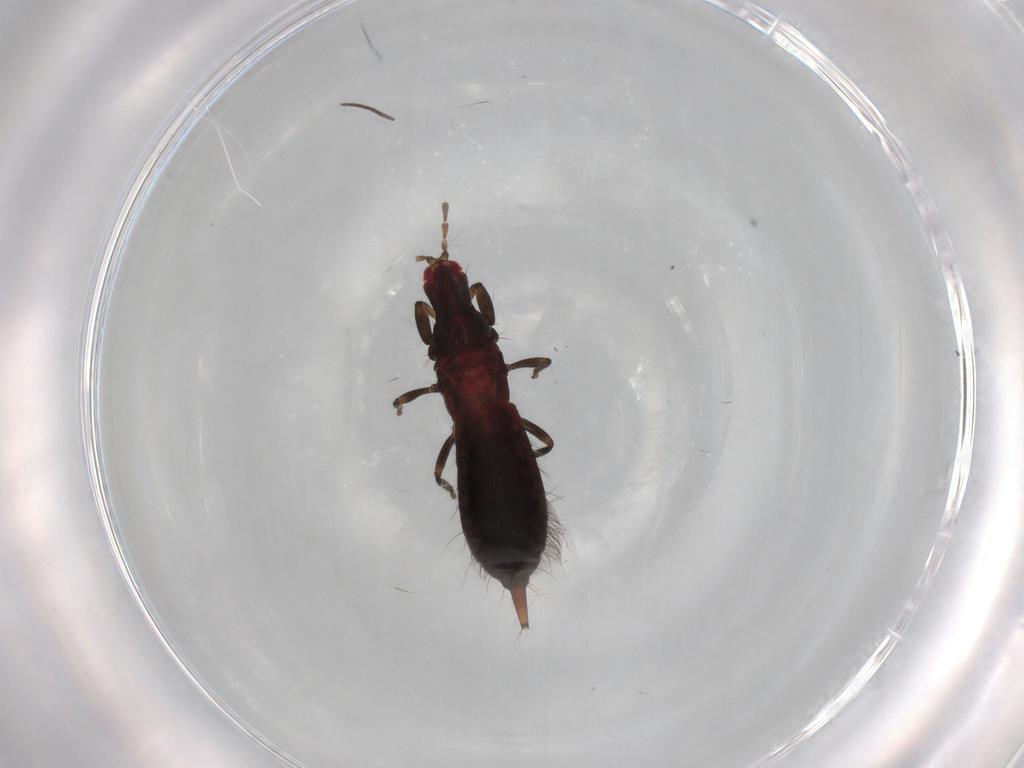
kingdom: Animalia
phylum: Arthropoda
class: Insecta
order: Thysanoptera
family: Phlaeothripidae
